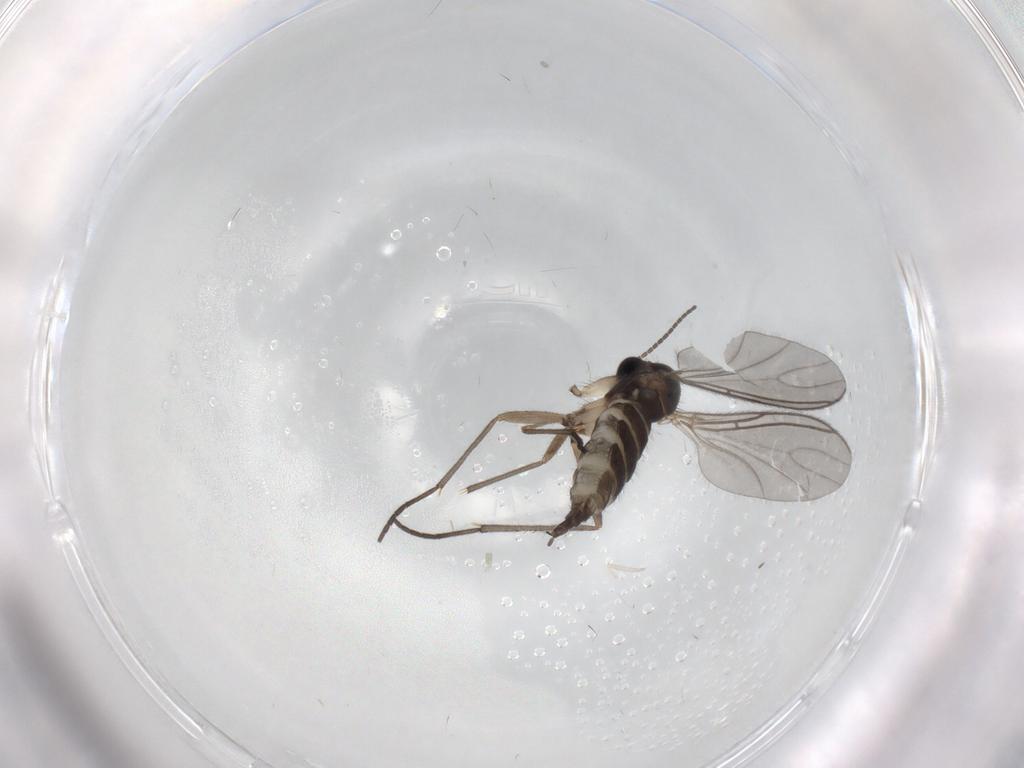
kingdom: Animalia
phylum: Arthropoda
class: Insecta
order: Diptera
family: Sciaridae
